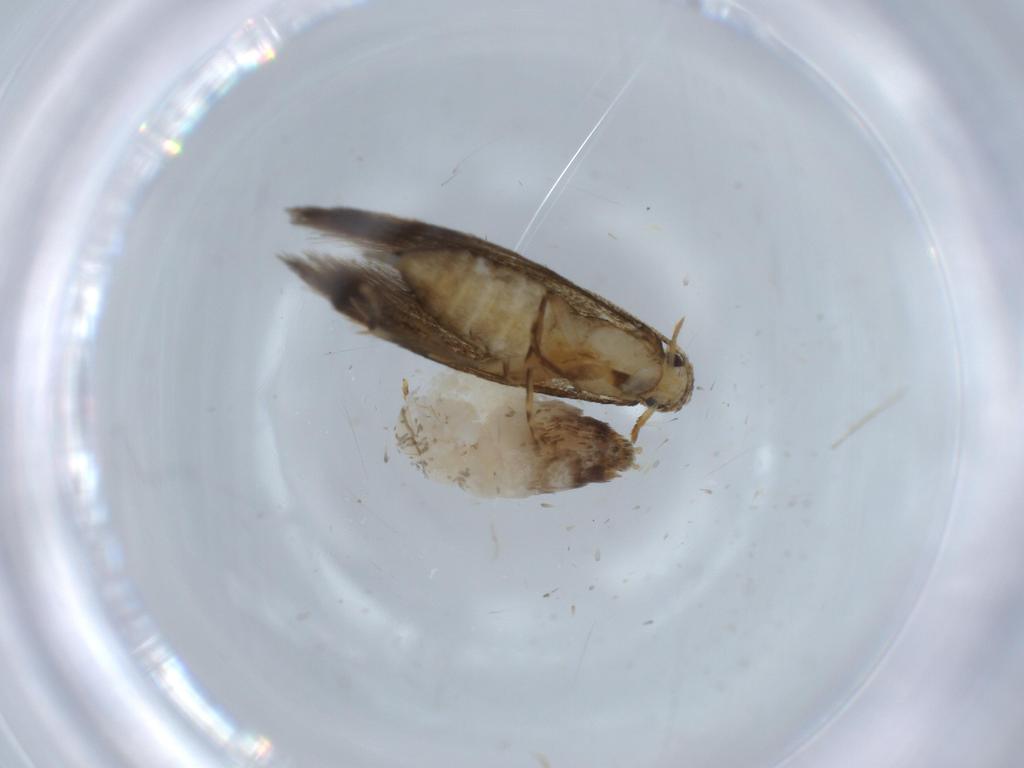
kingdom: Animalia
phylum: Arthropoda
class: Insecta
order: Lepidoptera
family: Tineidae
